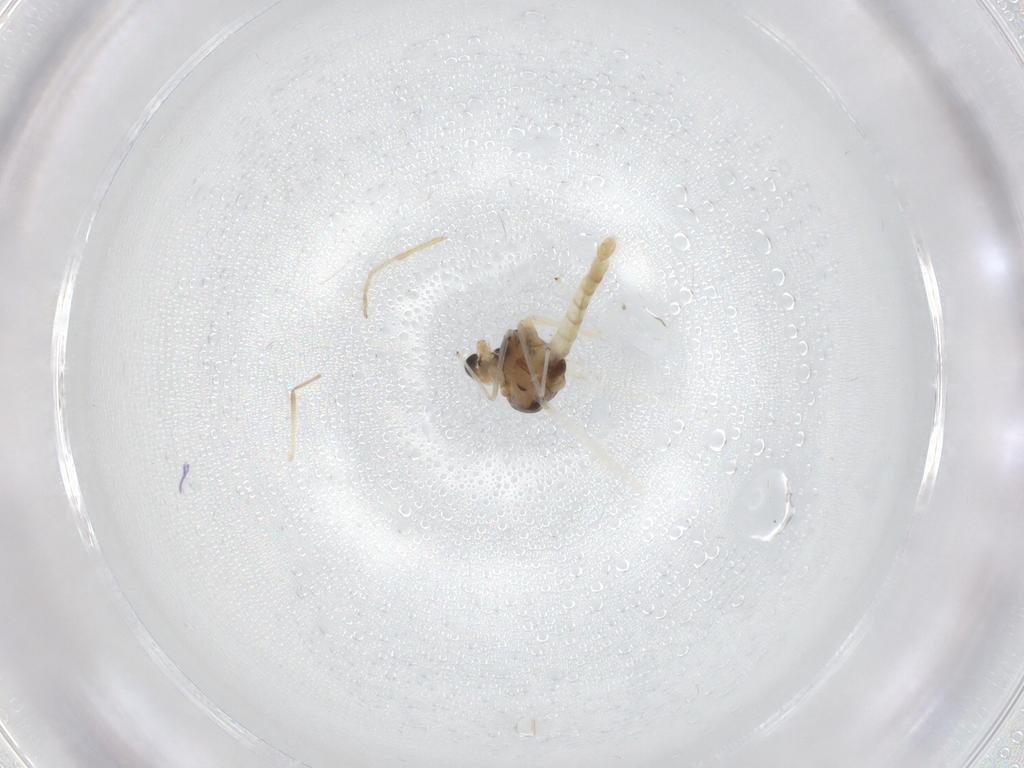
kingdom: Animalia
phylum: Arthropoda
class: Insecta
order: Diptera
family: Chironomidae
